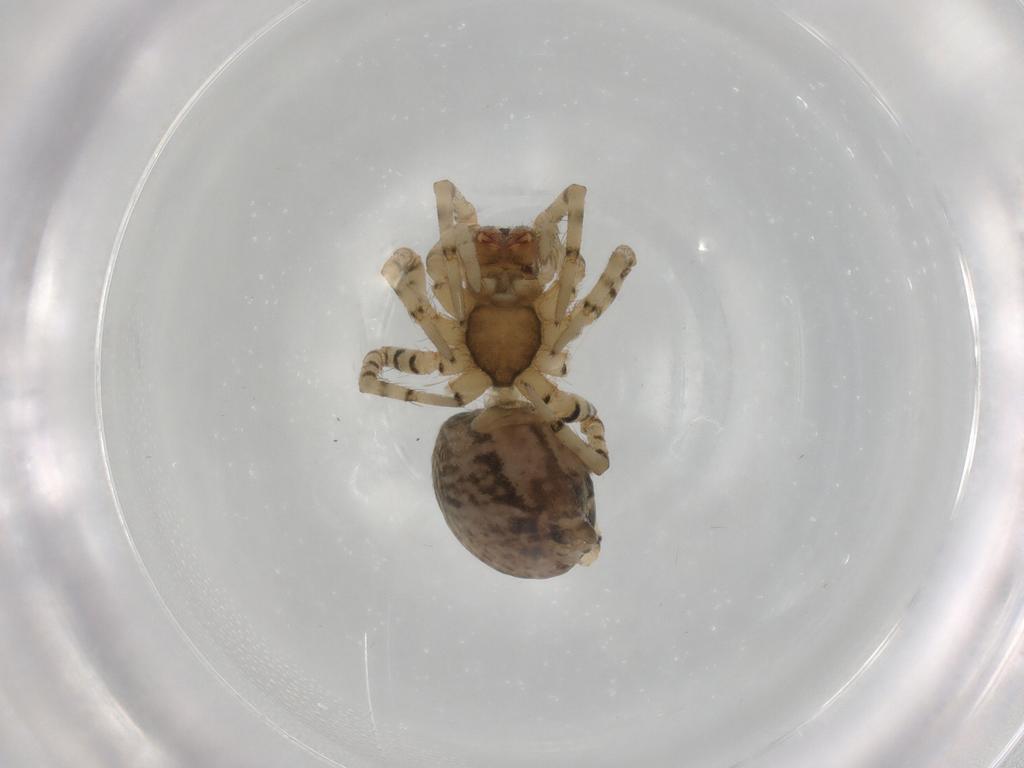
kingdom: Animalia
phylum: Arthropoda
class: Arachnida
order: Araneae
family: Corinnidae
